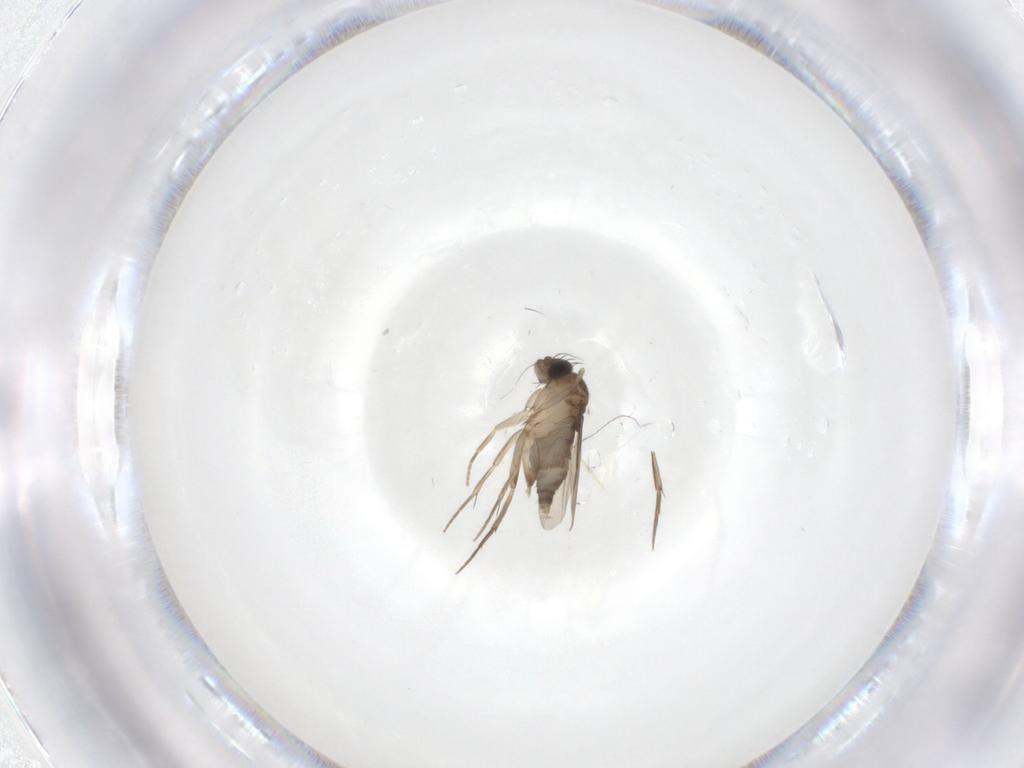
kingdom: Animalia
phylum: Arthropoda
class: Insecta
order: Diptera
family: Phoridae
